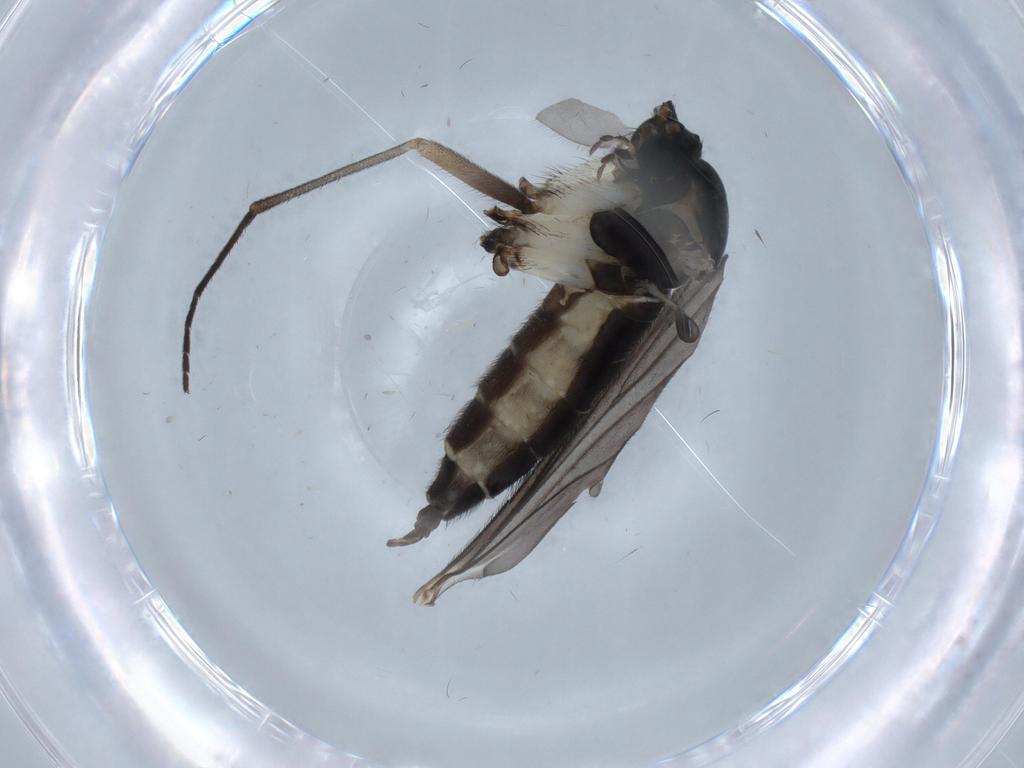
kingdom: Animalia
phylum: Arthropoda
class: Insecta
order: Diptera
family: Sciaridae
